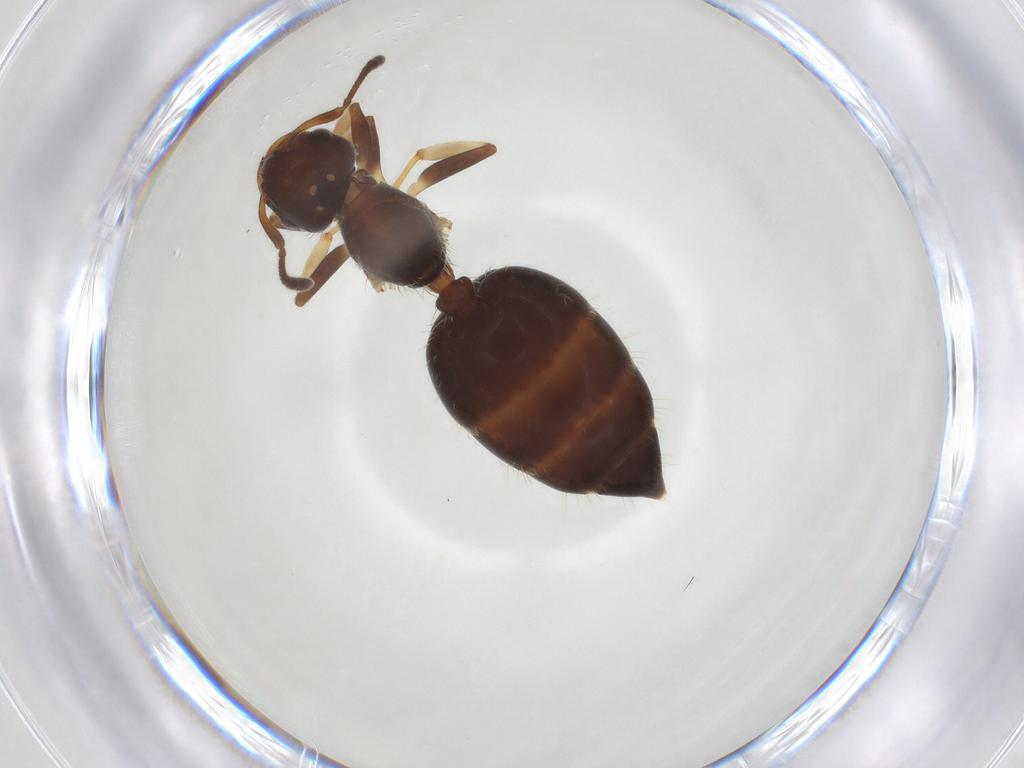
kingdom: Animalia
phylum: Arthropoda
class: Insecta
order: Hymenoptera
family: Formicidae
